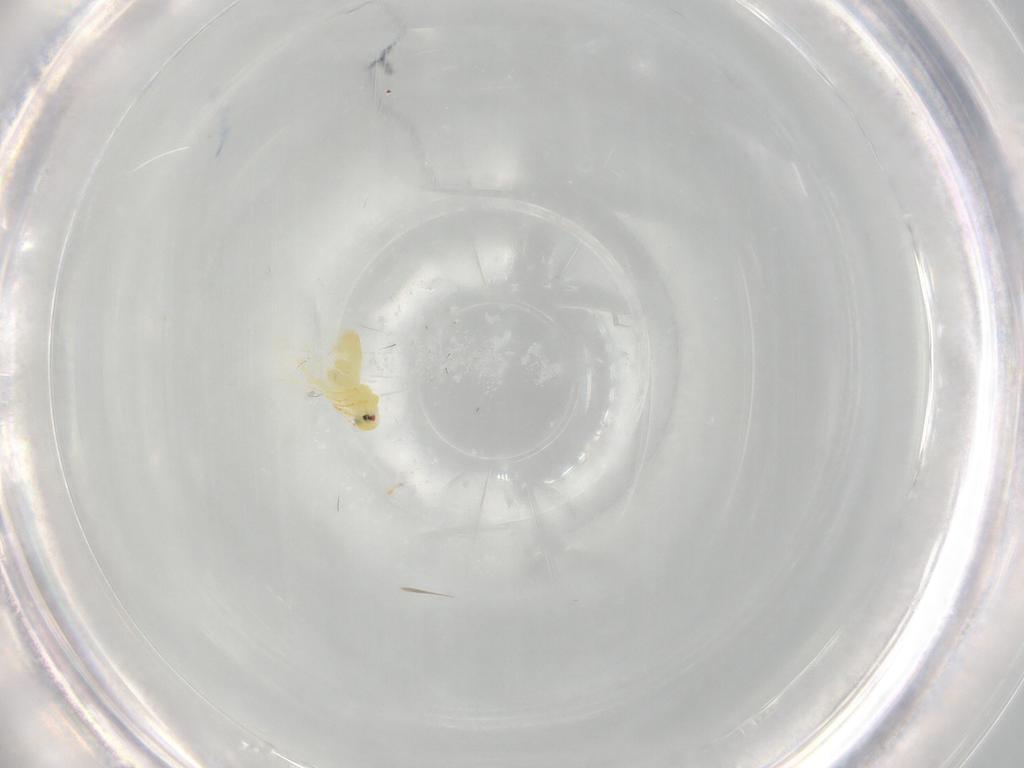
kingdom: Animalia
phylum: Arthropoda
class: Insecta
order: Hemiptera
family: Aleyrodidae
